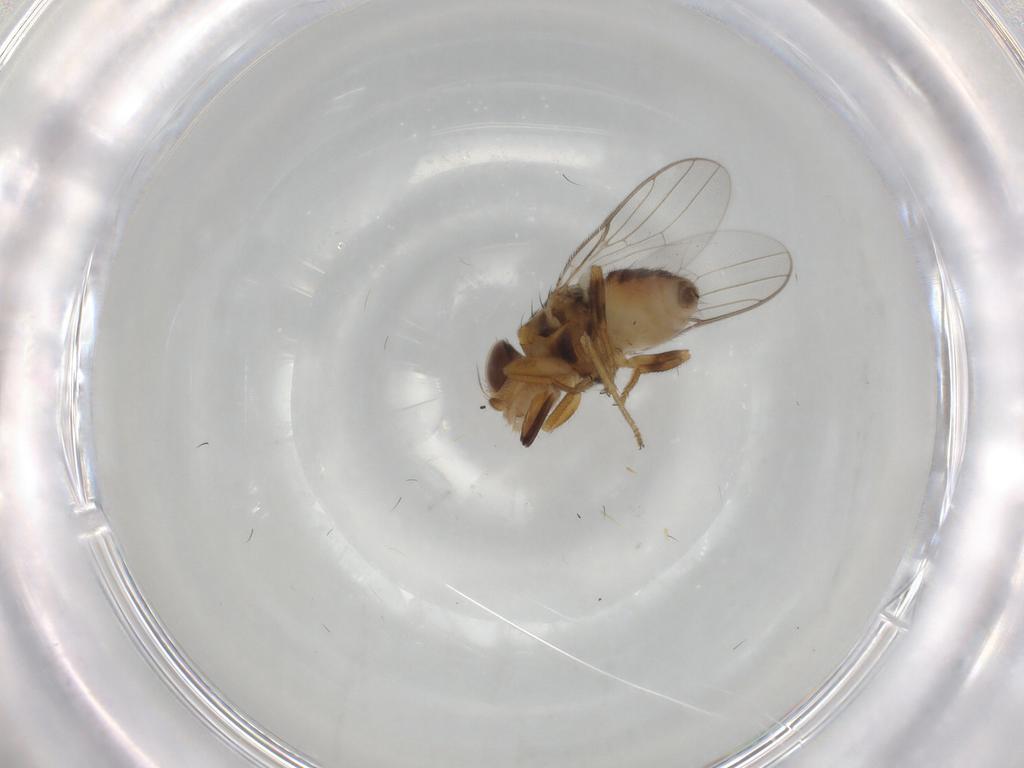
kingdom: Animalia
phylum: Arthropoda
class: Insecta
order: Diptera
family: Chloropidae
